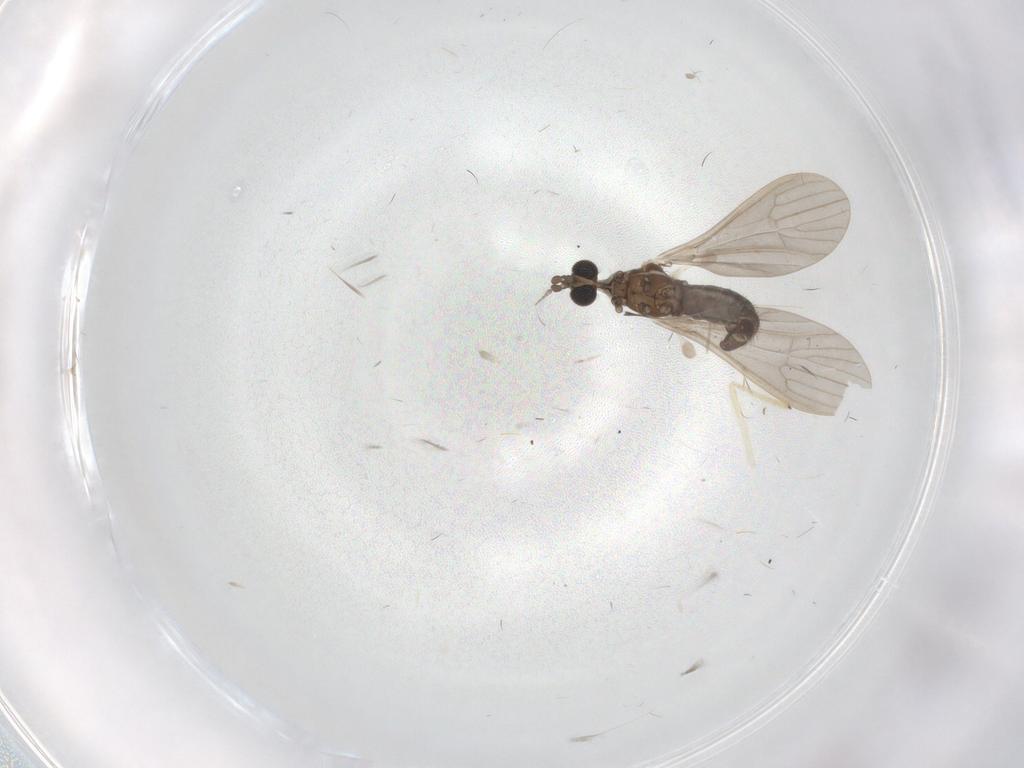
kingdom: Animalia
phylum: Arthropoda
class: Insecta
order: Diptera
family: Limoniidae
